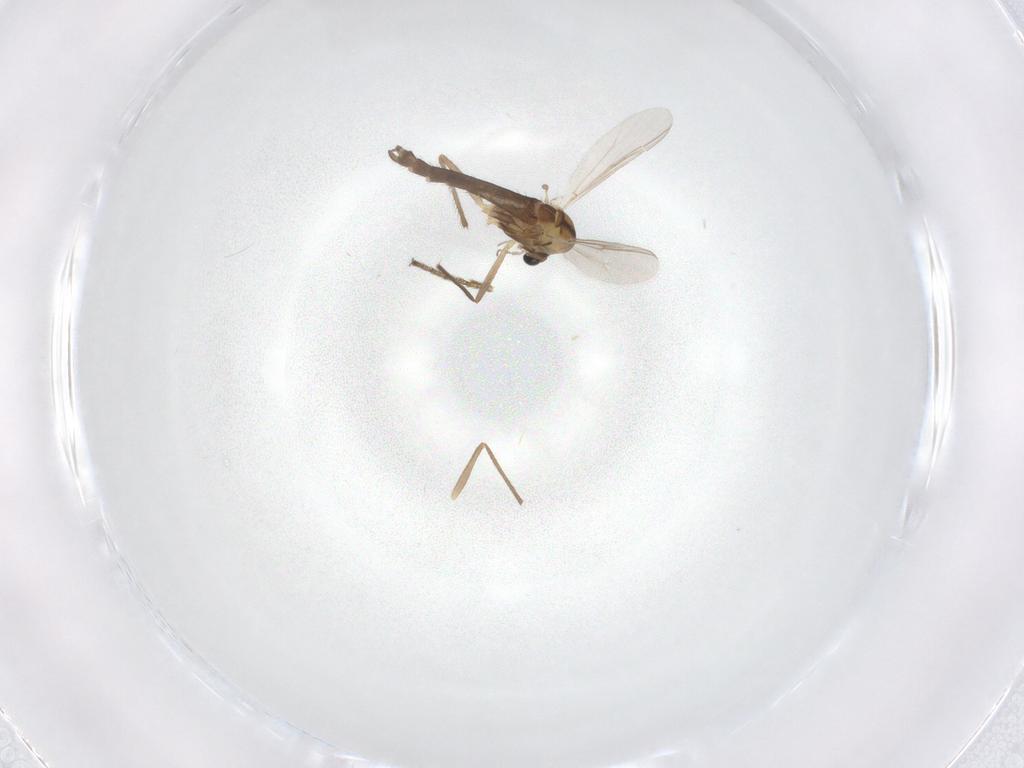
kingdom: Animalia
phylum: Arthropoda
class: Insecta
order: Diptera
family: Chironomidae
